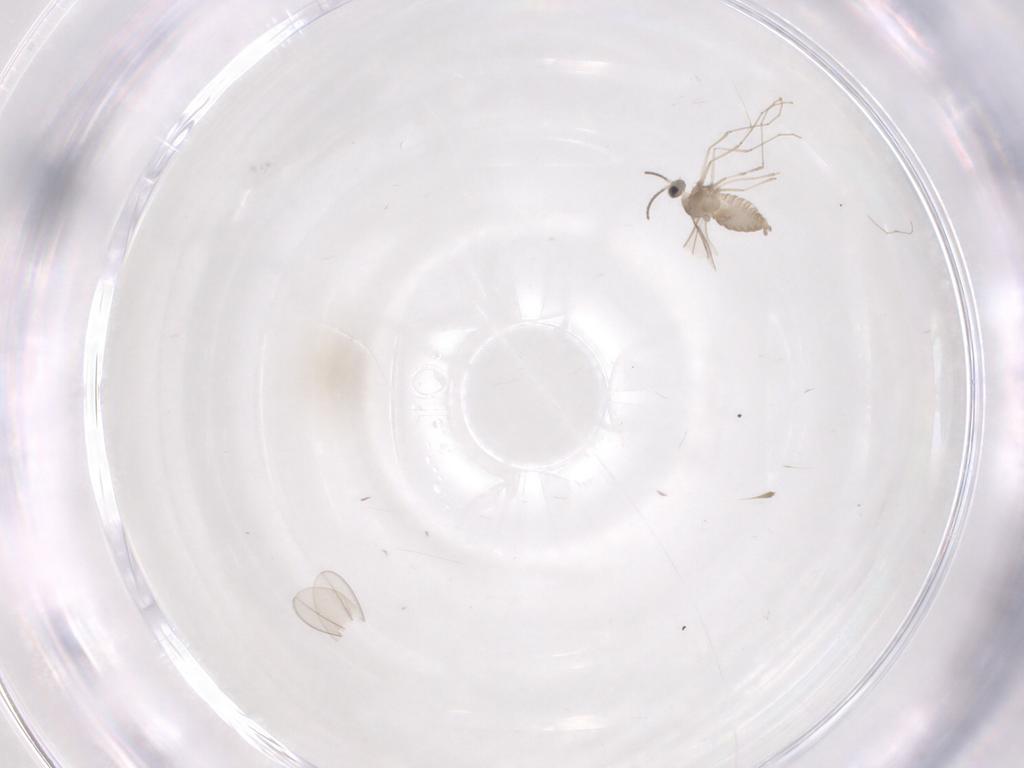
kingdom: Animalia
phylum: Arthropoda
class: Insecta
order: Diptera
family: Cecidomyiidae
